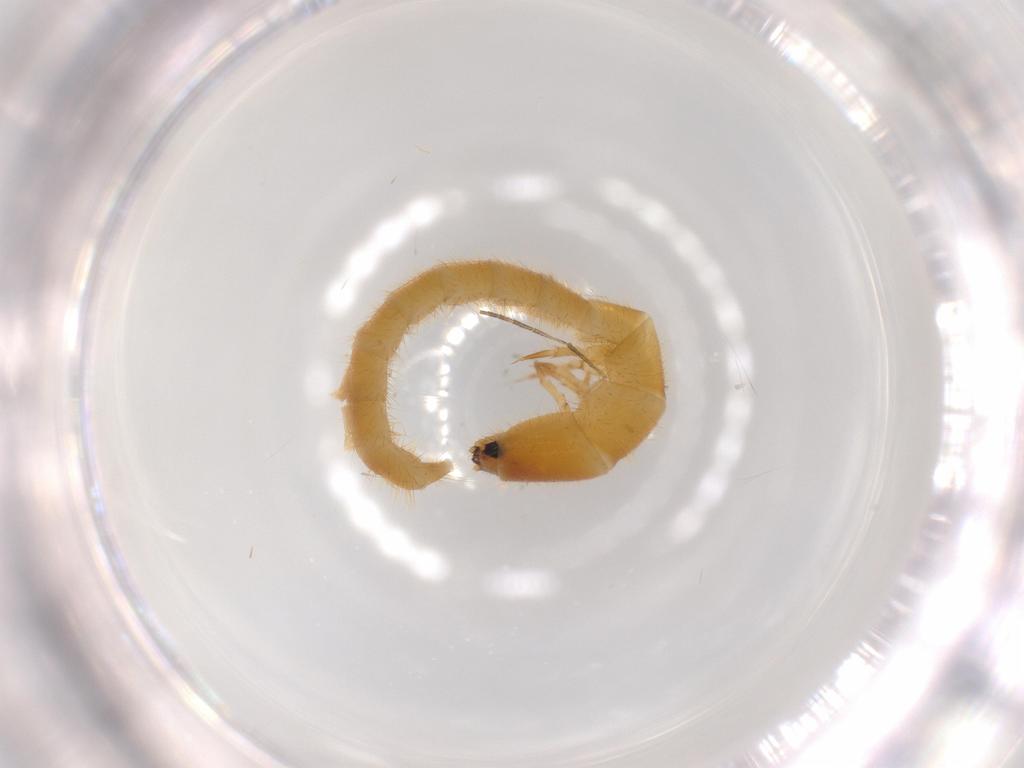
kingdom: Animalia
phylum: Arthropoda
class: Insecta
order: Coleoptera
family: Phengodidae
